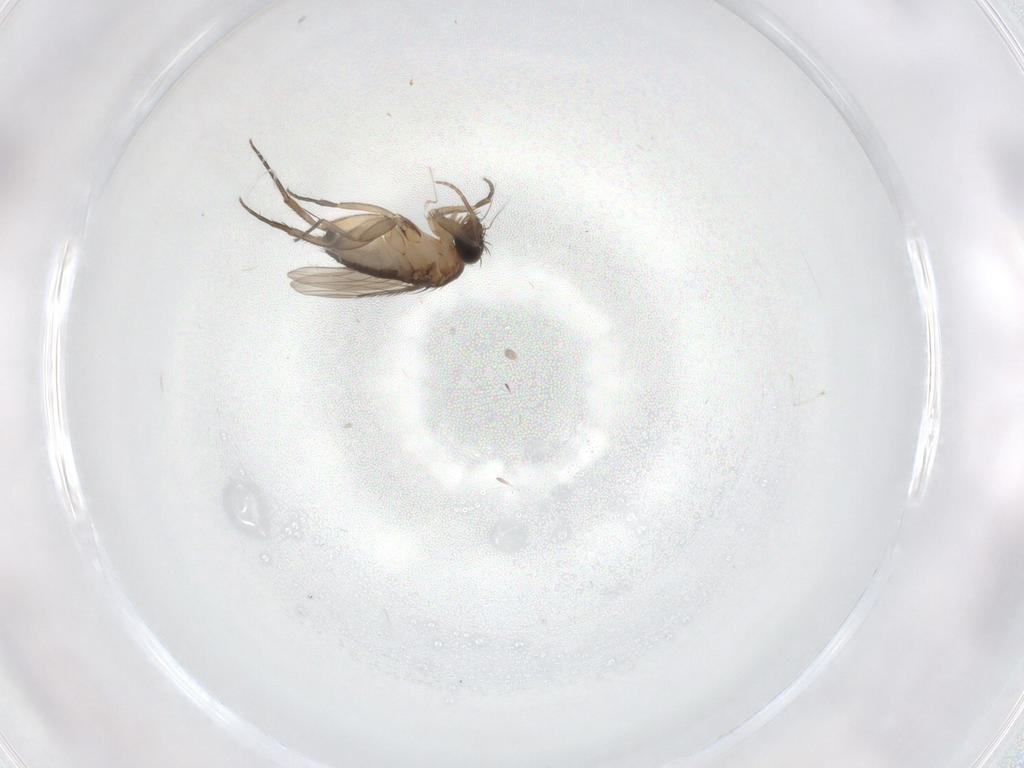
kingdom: Animalia
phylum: Arthropoda
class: Insecta
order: Diptera
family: Phoridae
